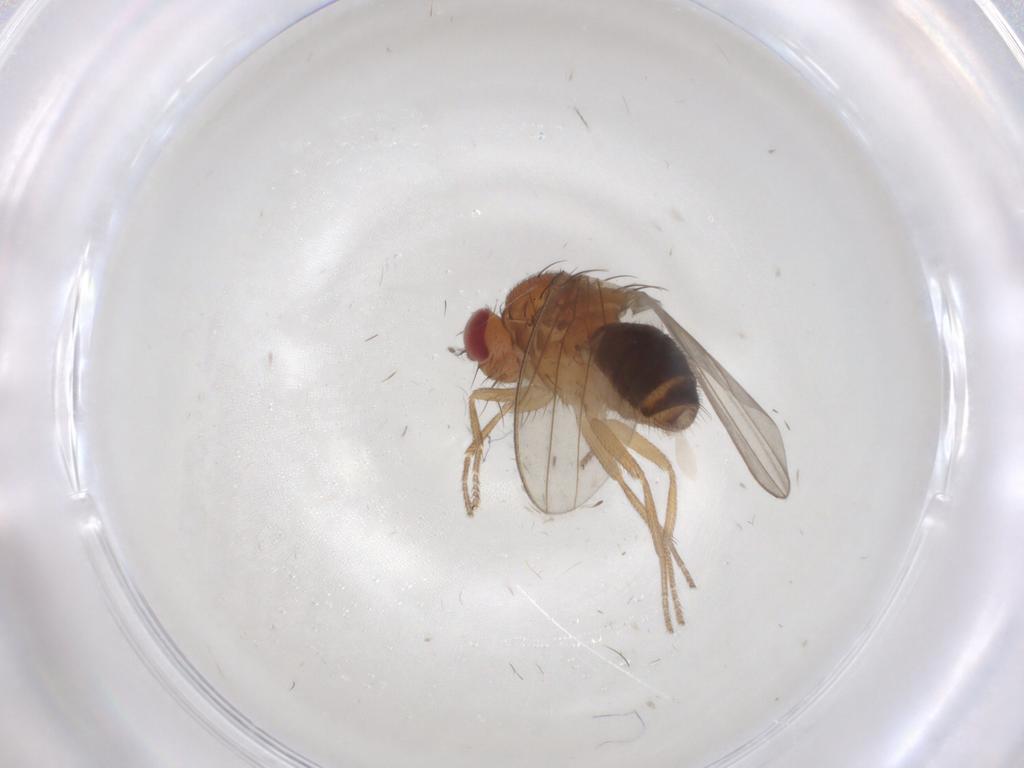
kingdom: Animalia
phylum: Arthropoda
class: Insecta
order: Diptera
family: Drosophilidae
